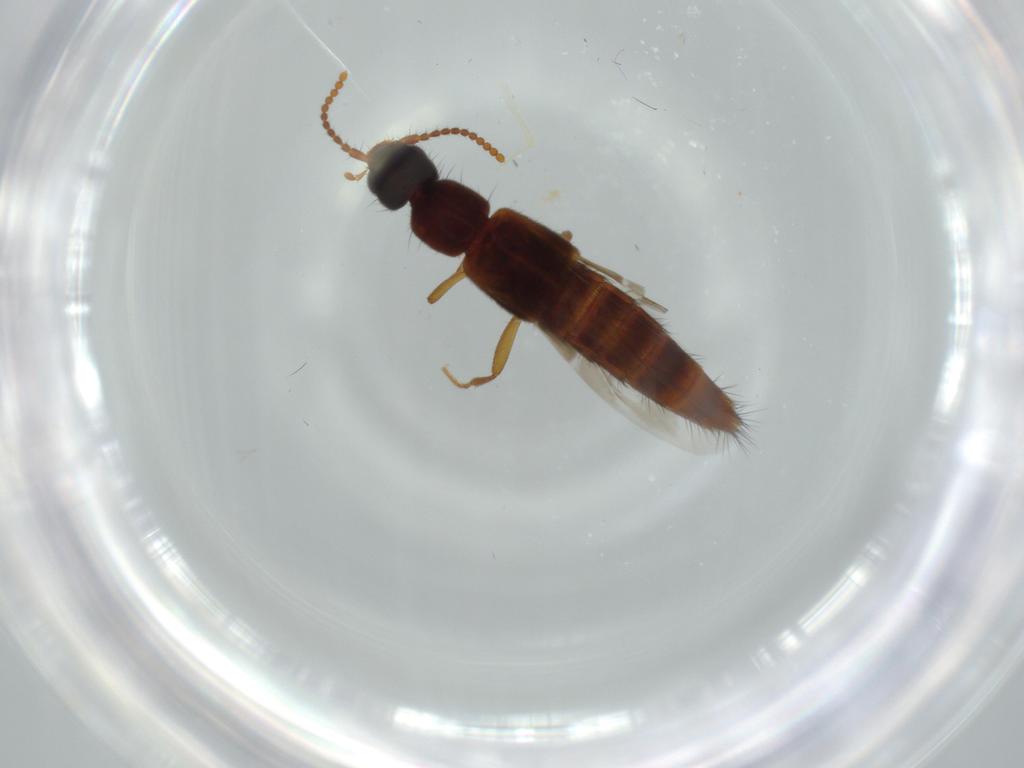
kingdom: Animalia
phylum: Arthropoda
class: Insecta
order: Coleoptera
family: Staphylinidae
